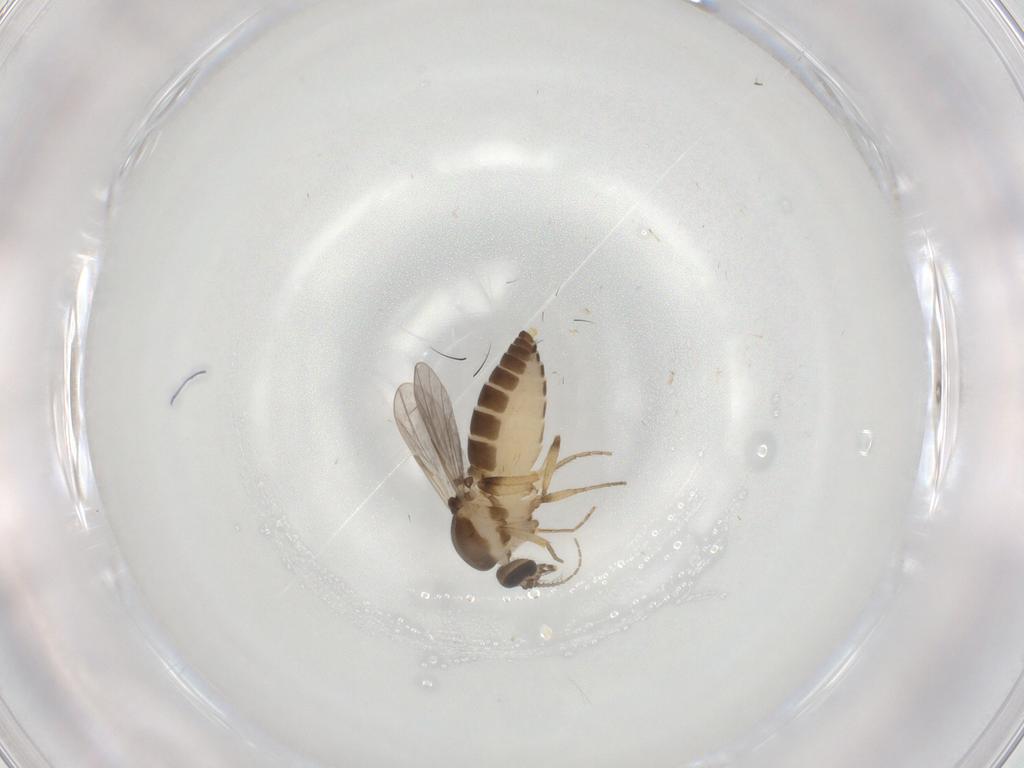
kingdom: Animalia
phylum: Arthropoda
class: Insecta
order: Diptera
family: Ceratopogonidae
